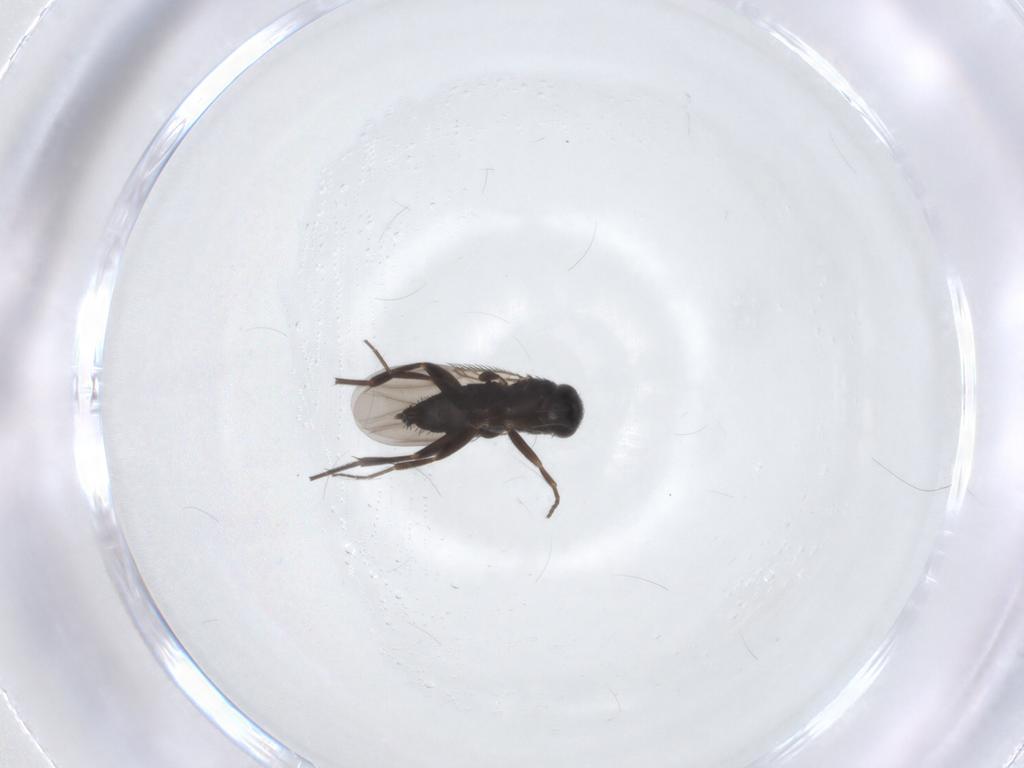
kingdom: Animalia
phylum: Arthropoda
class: Insecta
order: Diptera
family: Phoridae
